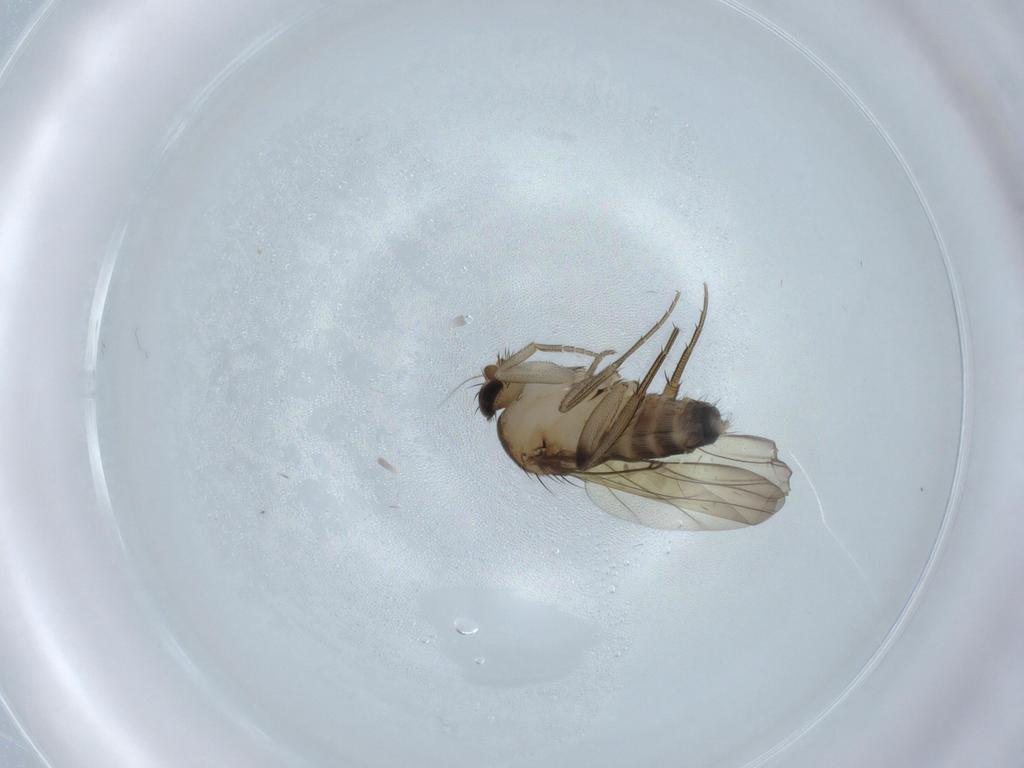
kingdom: Animalia
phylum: Arthropoda
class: Insecta
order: Diptera
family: Phoridae
